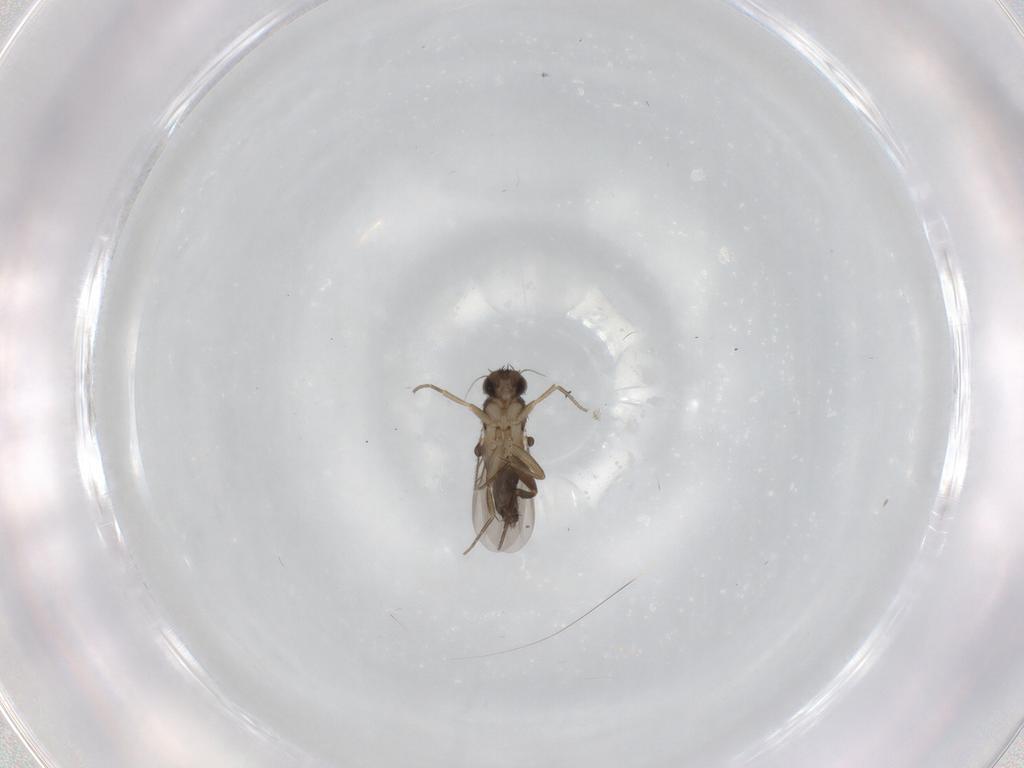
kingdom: Animalia
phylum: Arthropoda
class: Insecta
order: Diptera
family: Phoridae
